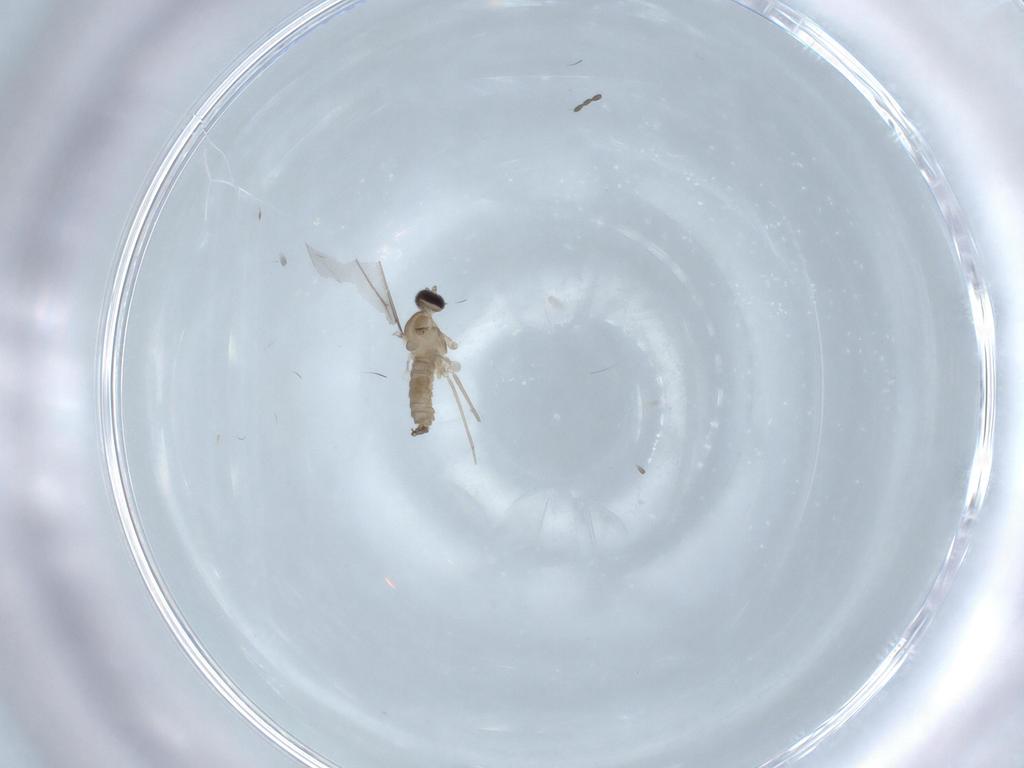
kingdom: Animalia
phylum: Arthropoda
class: Insecta
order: Diptera
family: Cecidomyiidae
